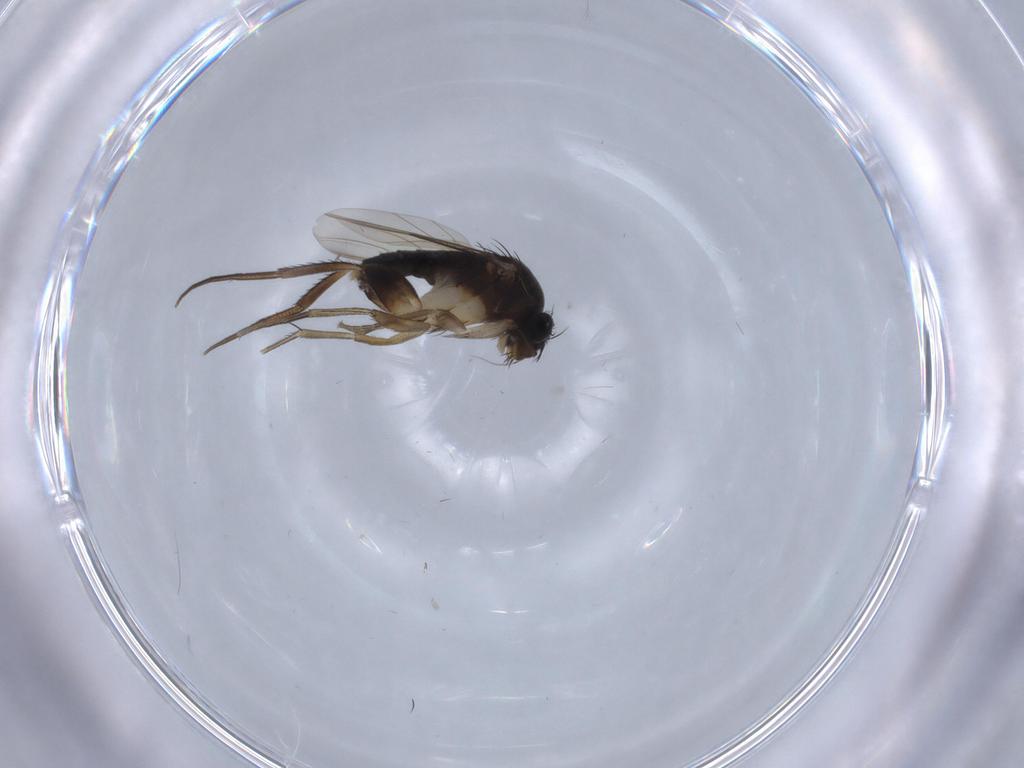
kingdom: Animalia
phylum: Arthropoda
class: Insecta
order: Diptera
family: Phoridae
